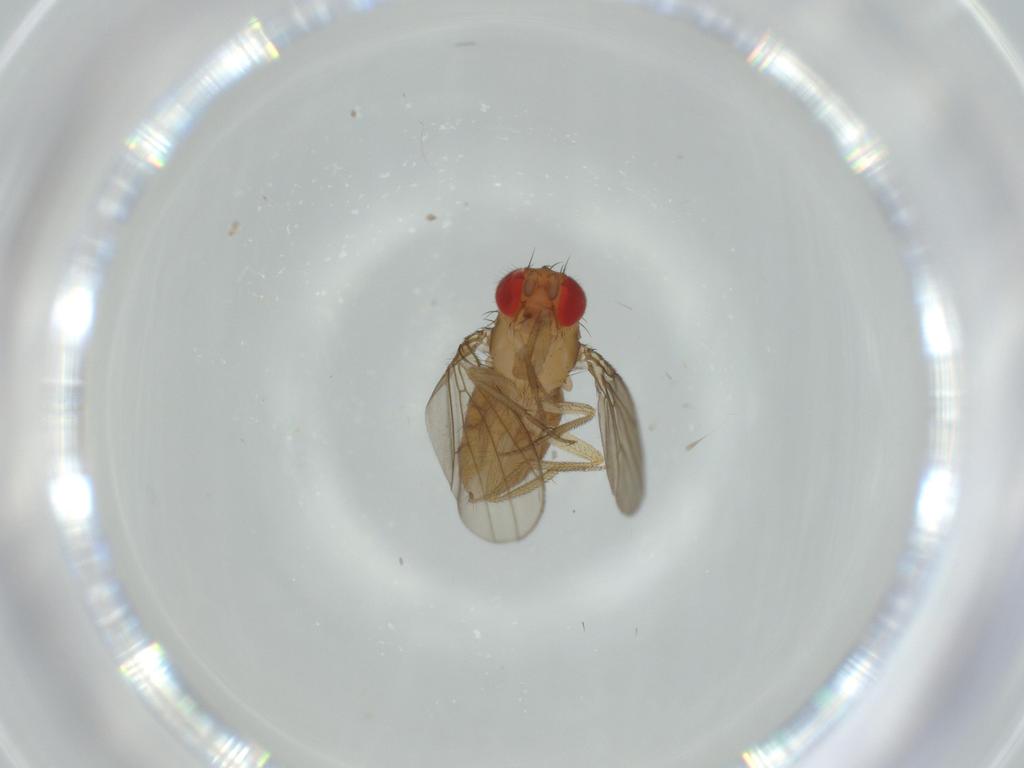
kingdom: Animalia
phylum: Arthropoda
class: Insecta
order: Diptera
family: Drosophilidae
